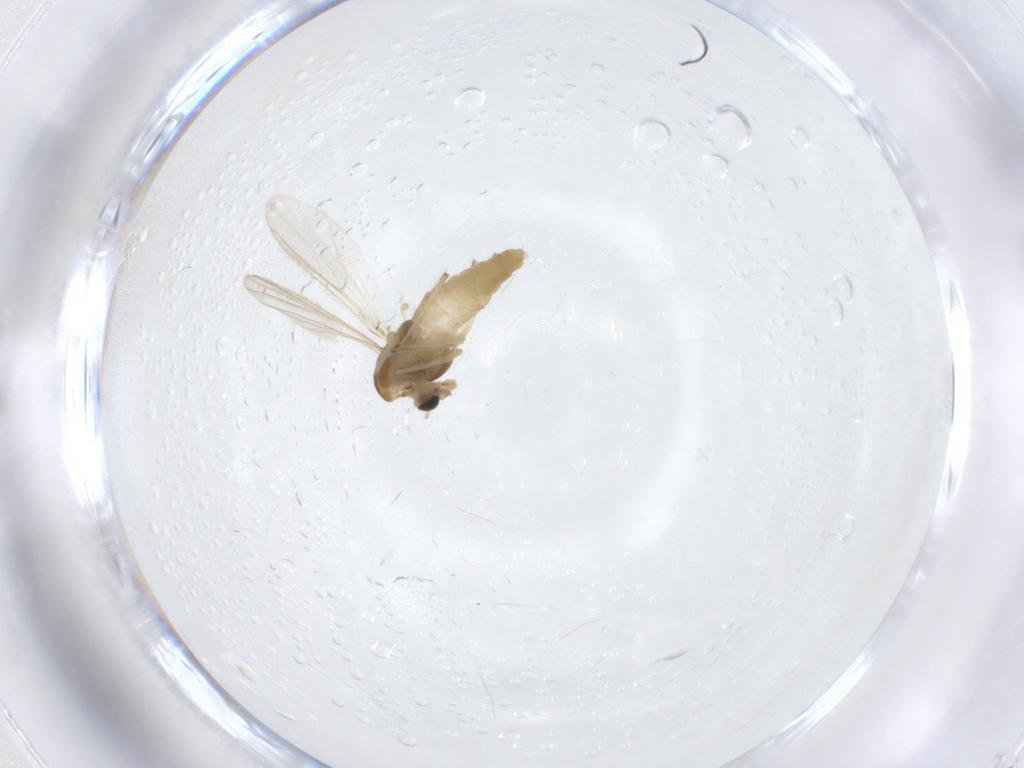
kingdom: Animalia
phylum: Arthropoda
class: Insecta
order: Diptera
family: Chironomidae
